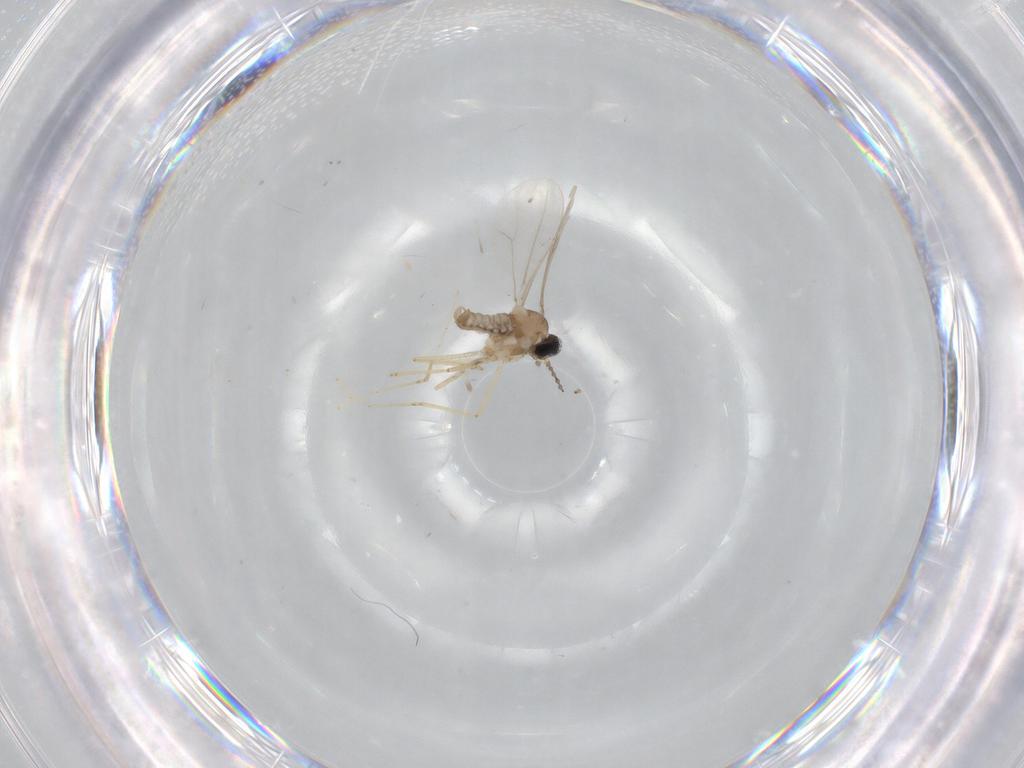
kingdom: Animalia
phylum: Arthropoda
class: Insecta
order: Diptera
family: Cecidomyiidae
